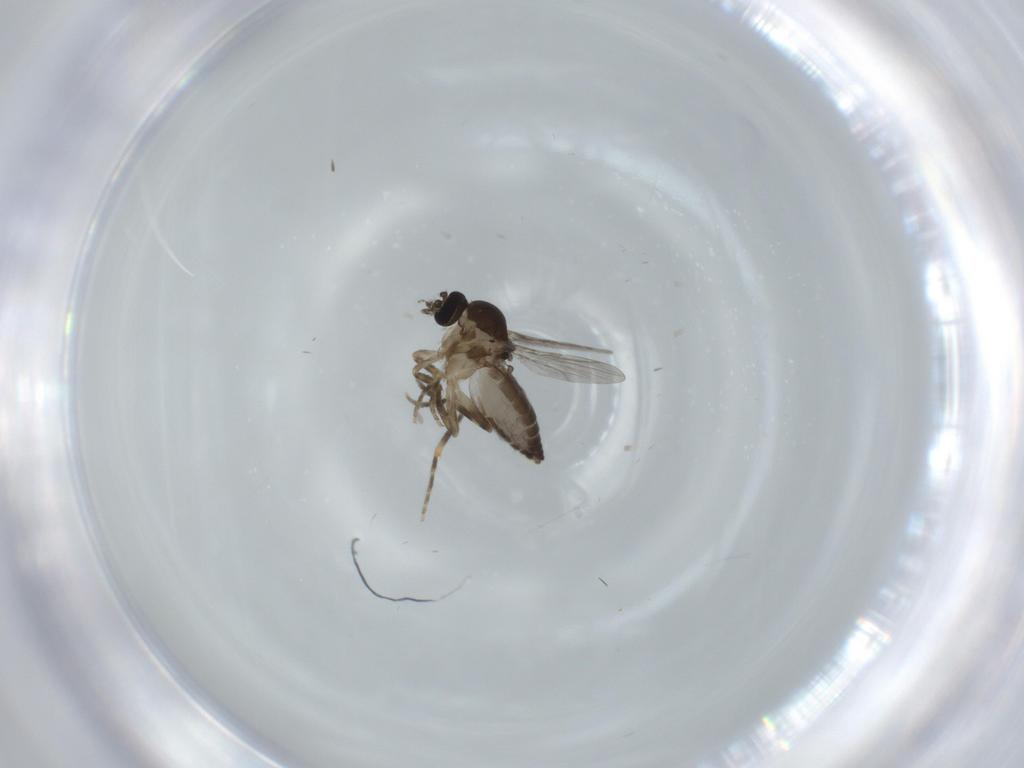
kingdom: Animalia
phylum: Arthropoda
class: Insecta
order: Diptera
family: Ceratopogonidae
